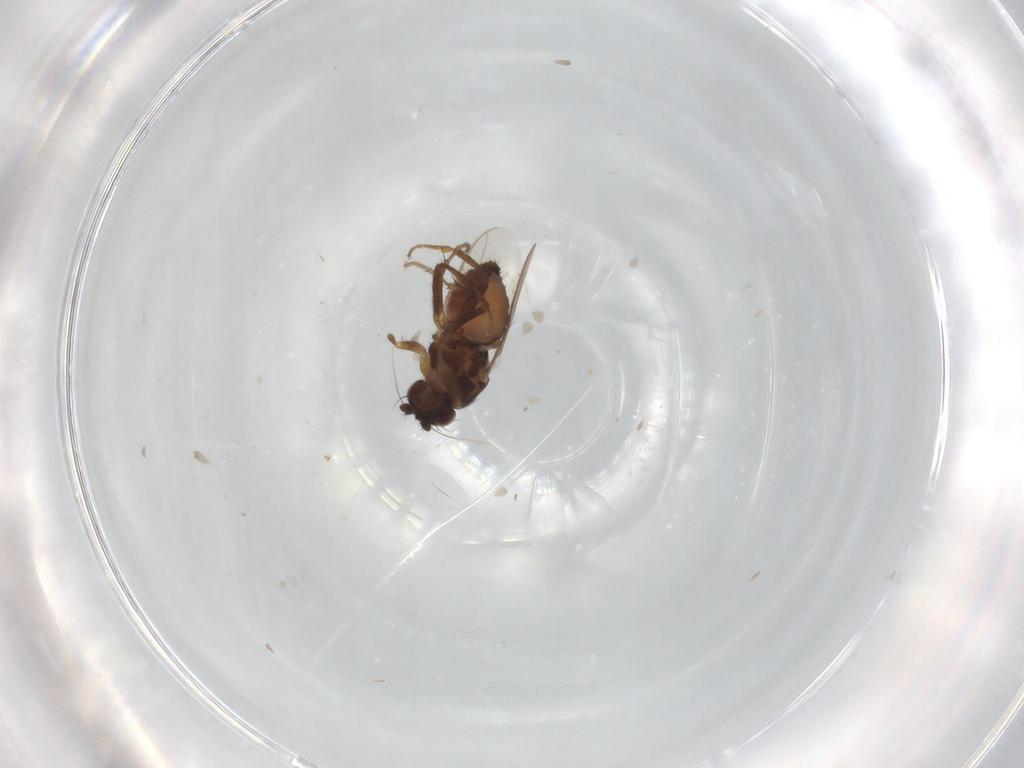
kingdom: Animalia
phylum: Arthropoda
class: Insecta
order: Diptera
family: Sphaeroceridae
